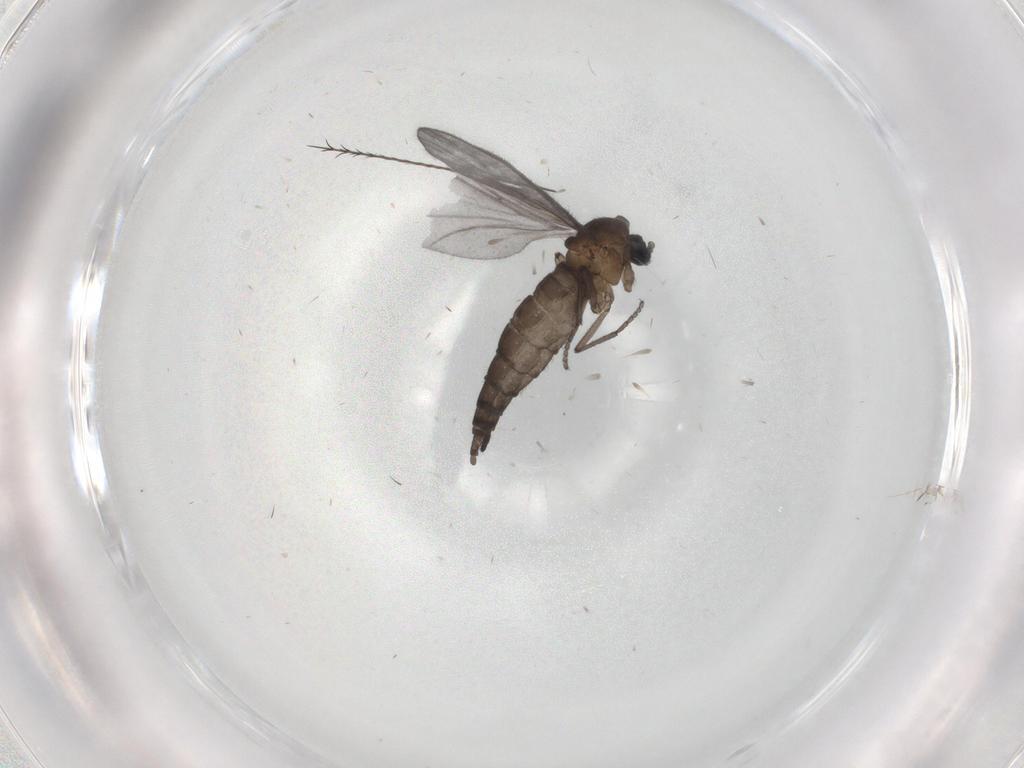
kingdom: Animalia
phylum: Arthropoda
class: Insecta
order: Diptera
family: Sciaridae
